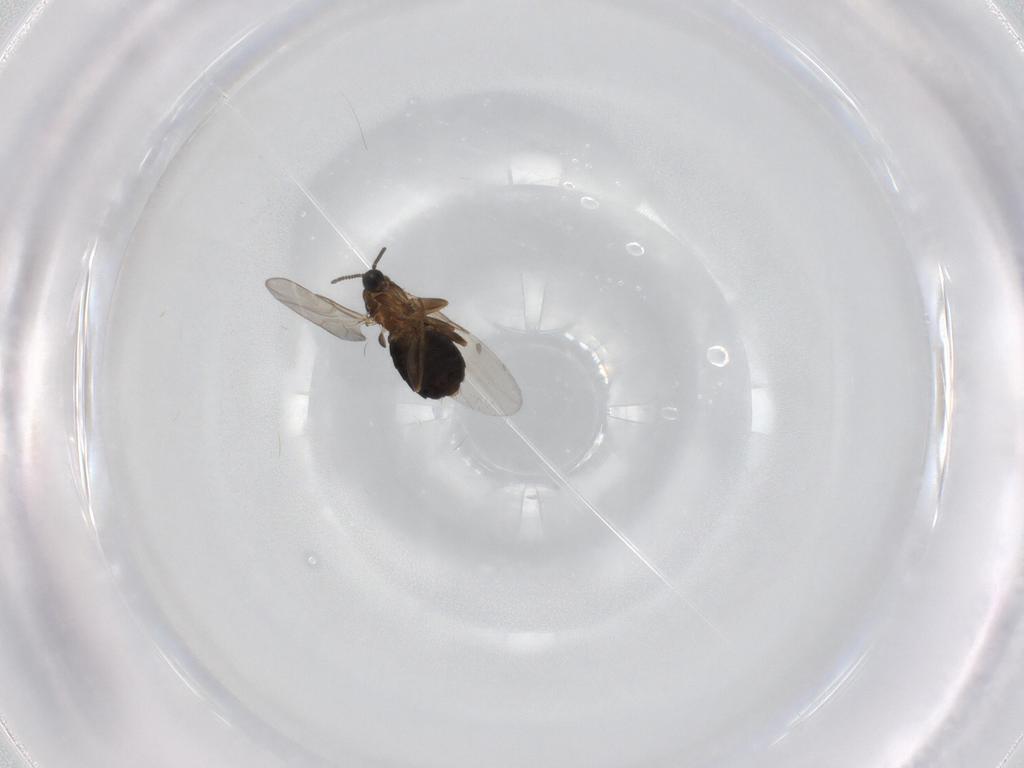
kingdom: Animalia
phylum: Arthropoda
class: Insecta
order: Diptera
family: Scatopsidae
